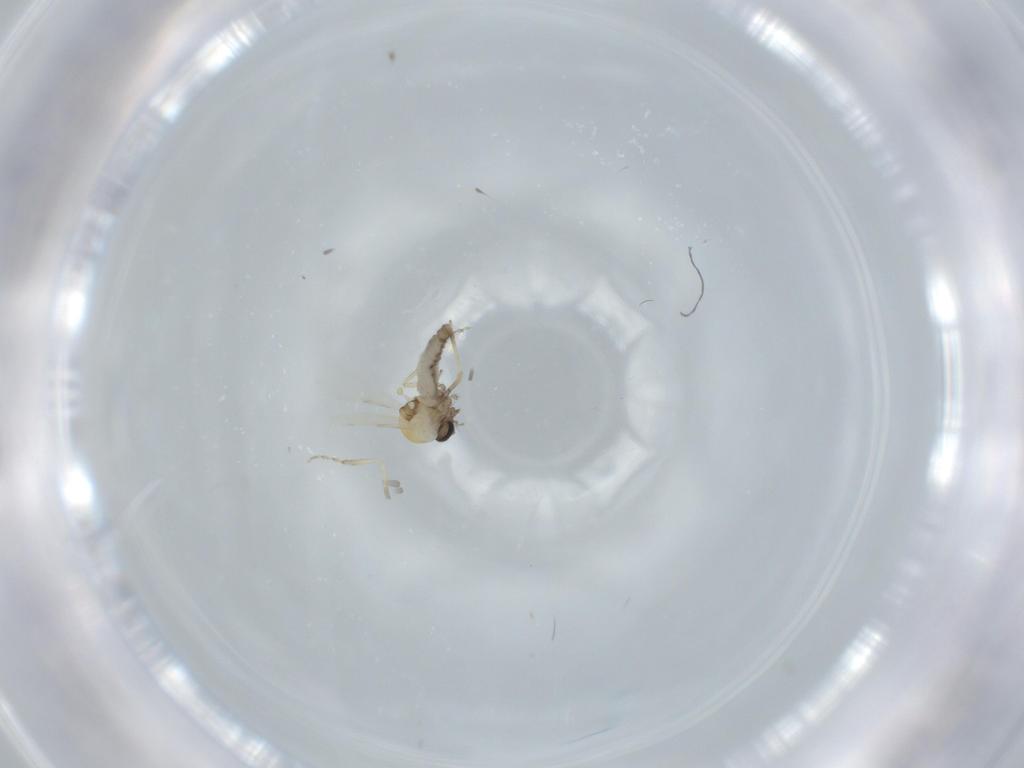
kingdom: Animalia
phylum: Arthropoda
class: Insecta
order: Diptera
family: Ceratopogonidae
